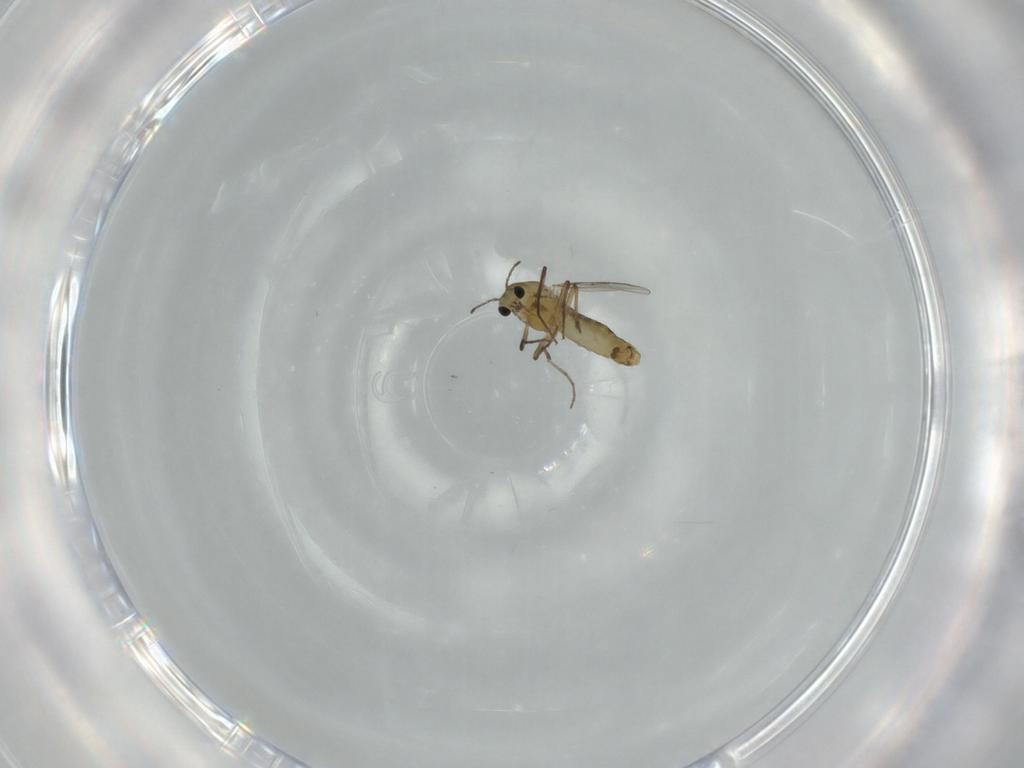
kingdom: Animalia
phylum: Arthropoda
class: Insecta
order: Diptera
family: Chironomidae
